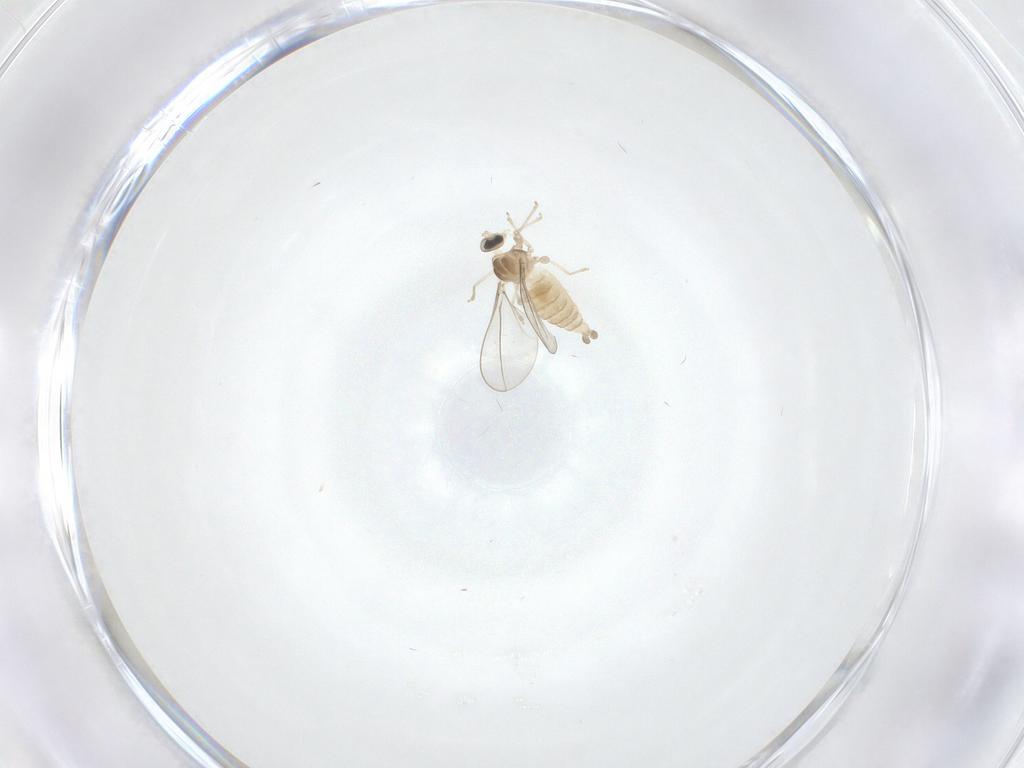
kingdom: Animalia
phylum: Arthropoda
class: Insecta
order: Diptera
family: Cecidomyiidae
